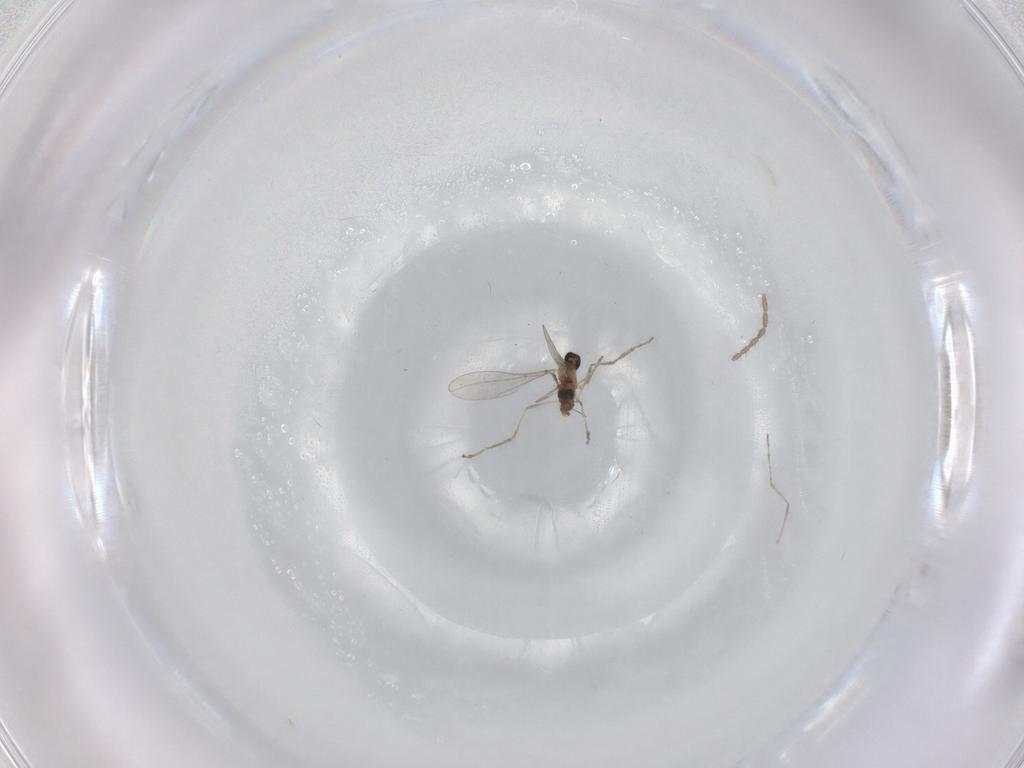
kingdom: Animalia
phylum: Arthropoda
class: Insecta
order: Diptera
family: Limoniidae
